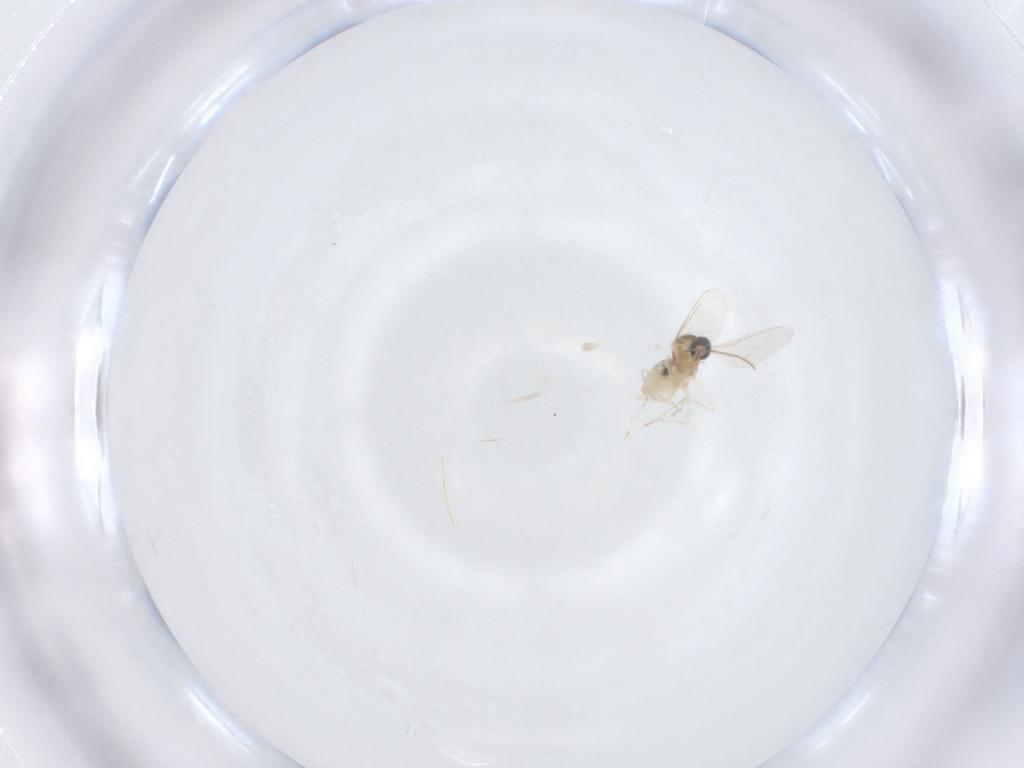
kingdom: Animalia
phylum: Arthropoda
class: Insecta
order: Diptera
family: Cecidomyiidae
